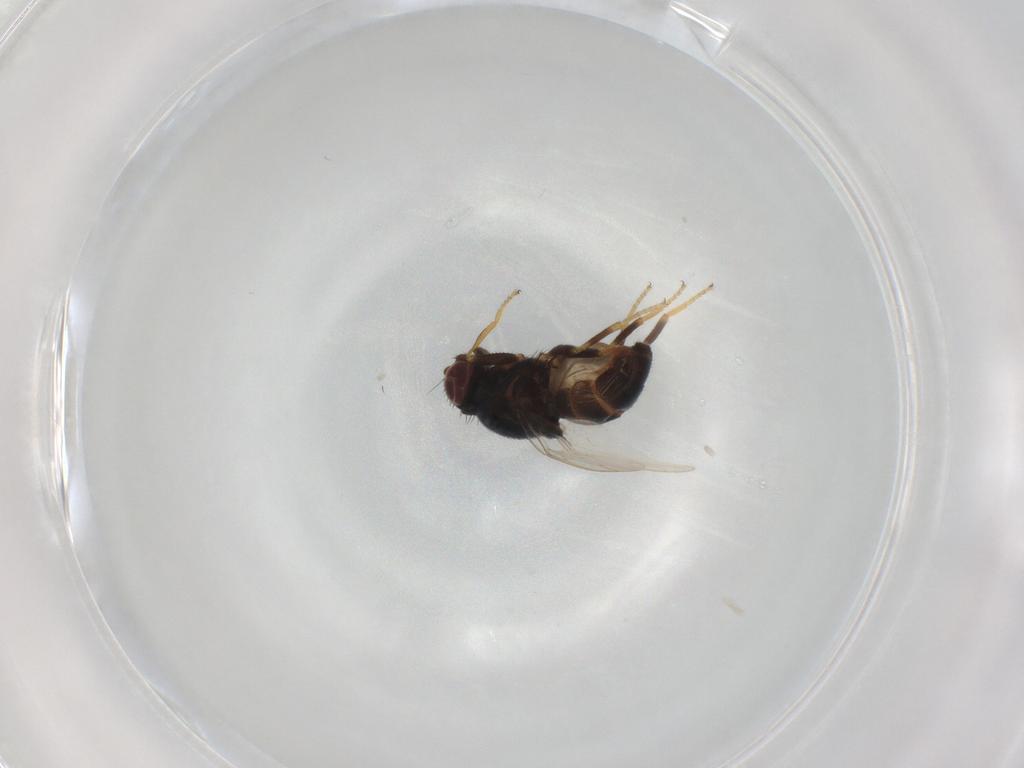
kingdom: Animalia
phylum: Arthropoda
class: Insecta
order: Diptera
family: Chloropidae
